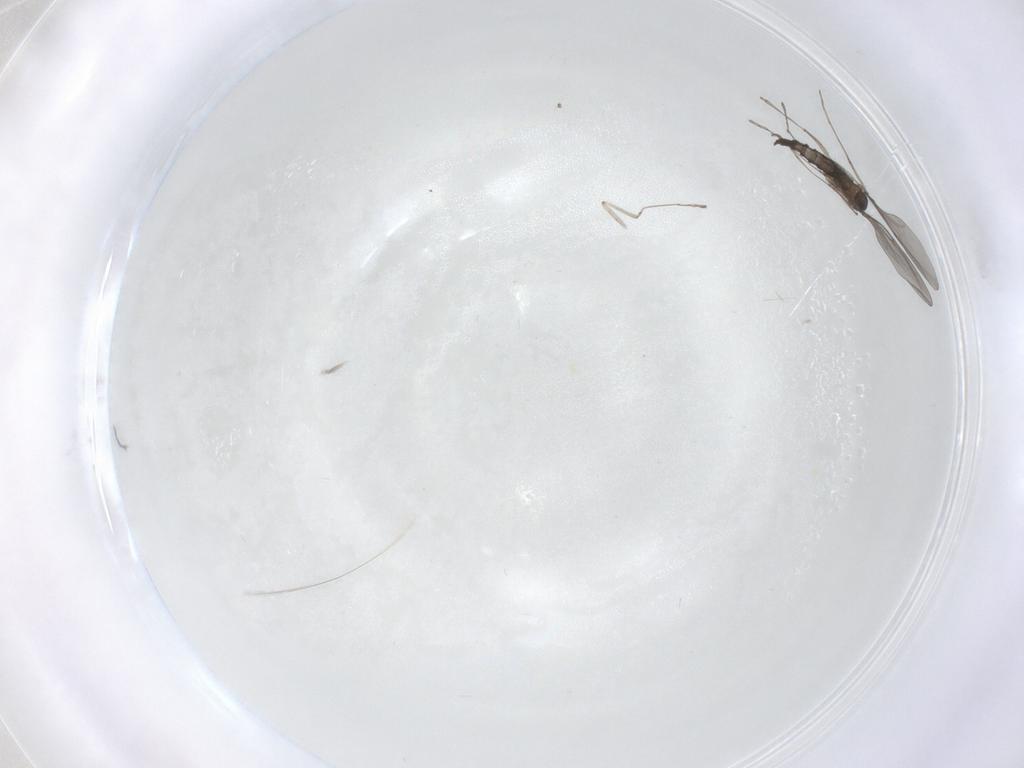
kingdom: Animalia
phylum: Arthropoda
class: Insecta
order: Diptera
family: Cecidomyiidae
